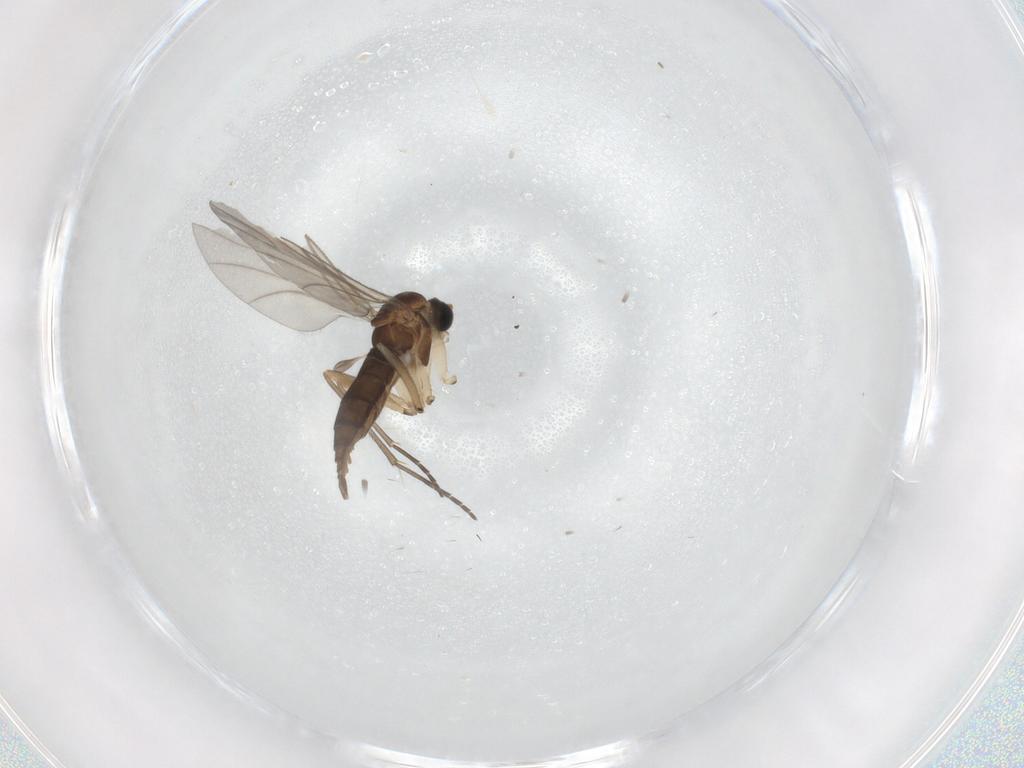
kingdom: Animalia
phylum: Arthropoda
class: Insecta
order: Diptera
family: Sciaridae
